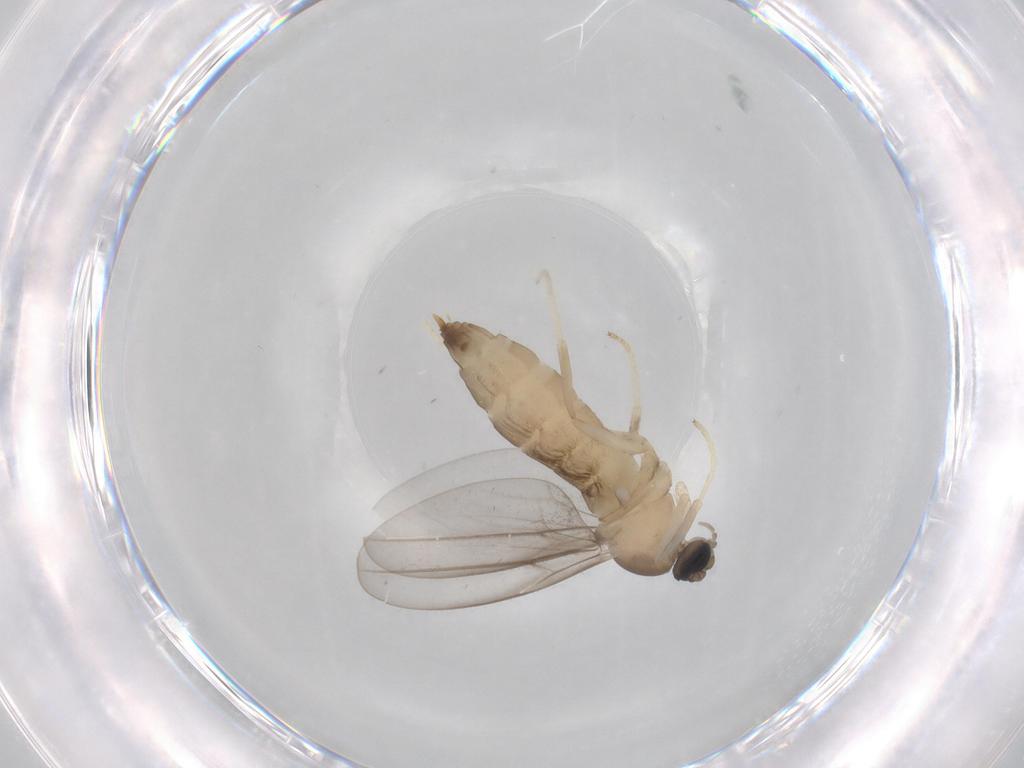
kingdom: Animalia
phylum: Arthropoda
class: Insecta
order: Diptera
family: Cecidomyiidae
